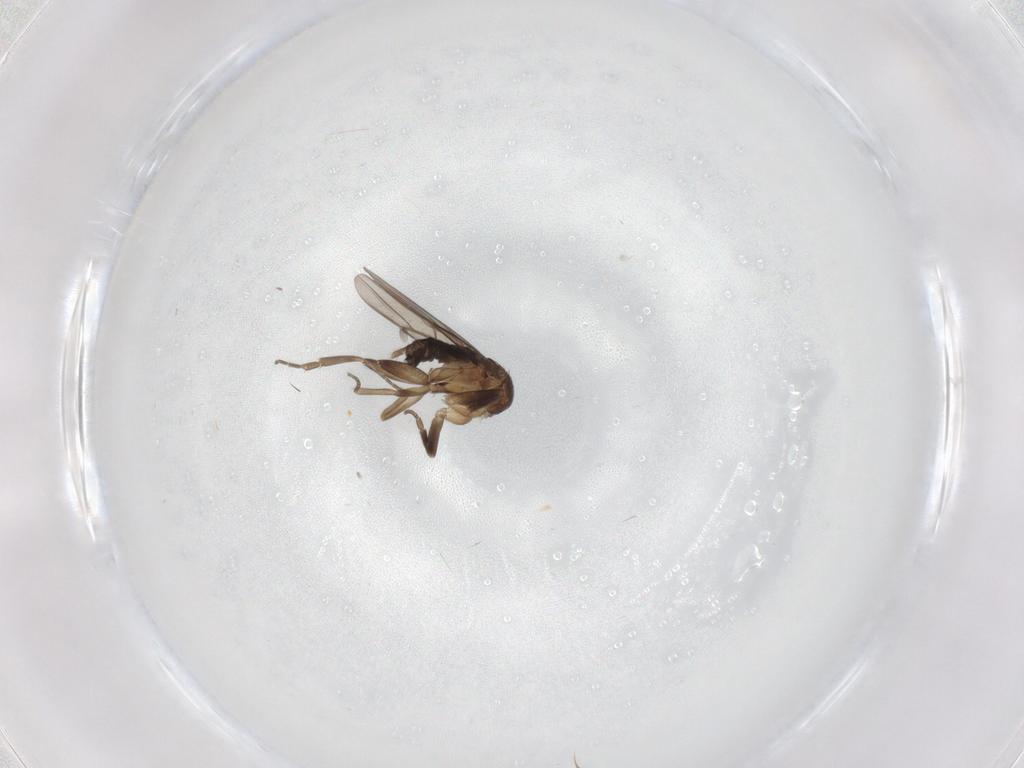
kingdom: Animalia
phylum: Arthropoda
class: Insecta
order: Diptera
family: Phoridae
